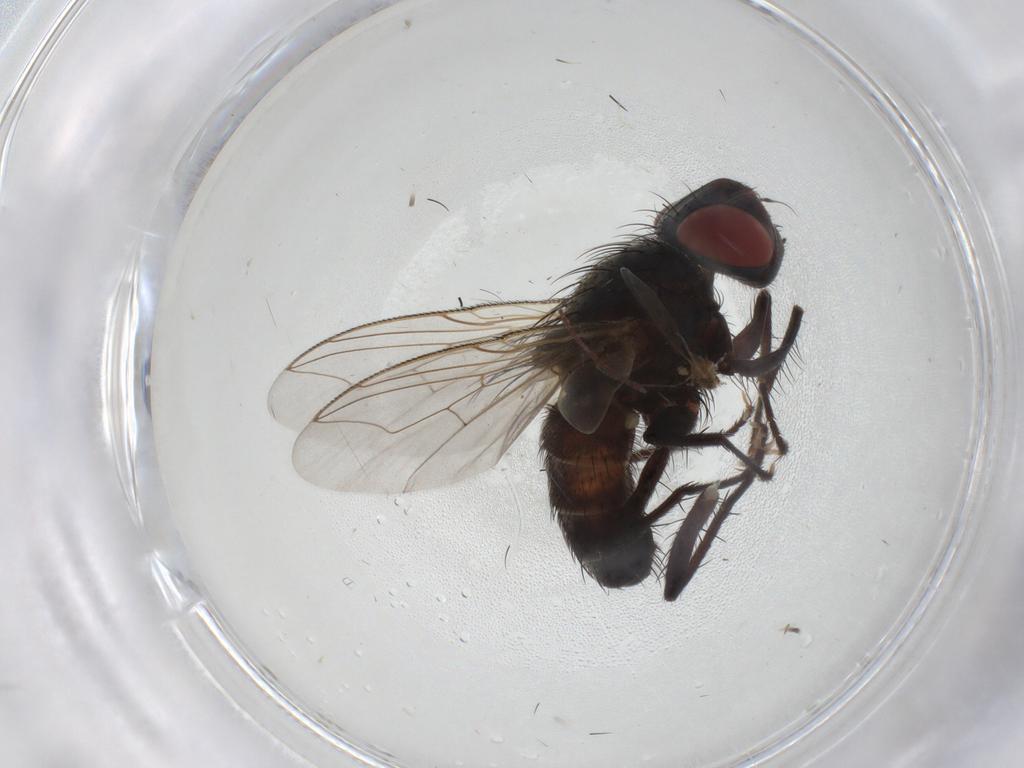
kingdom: Animalia
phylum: Arthropoda
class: Insecta
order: Diptera
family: Sarcophagidae
